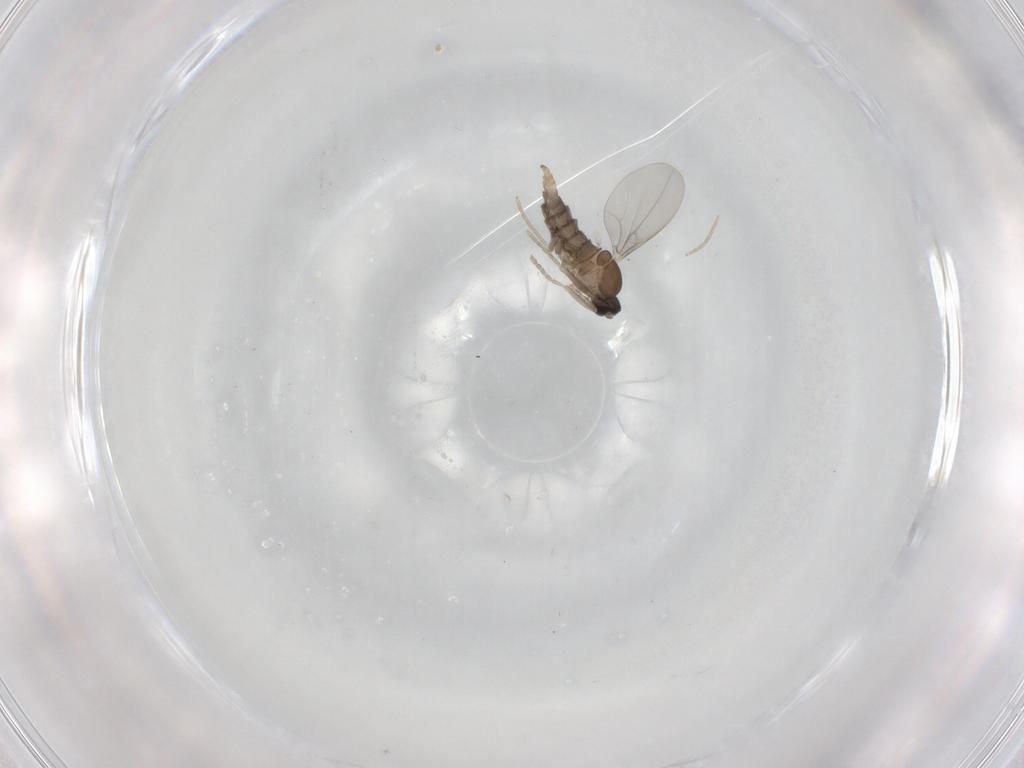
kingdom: Animalia
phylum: Arthropoda
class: Insecta
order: Diptera
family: Cecidomyiidae
